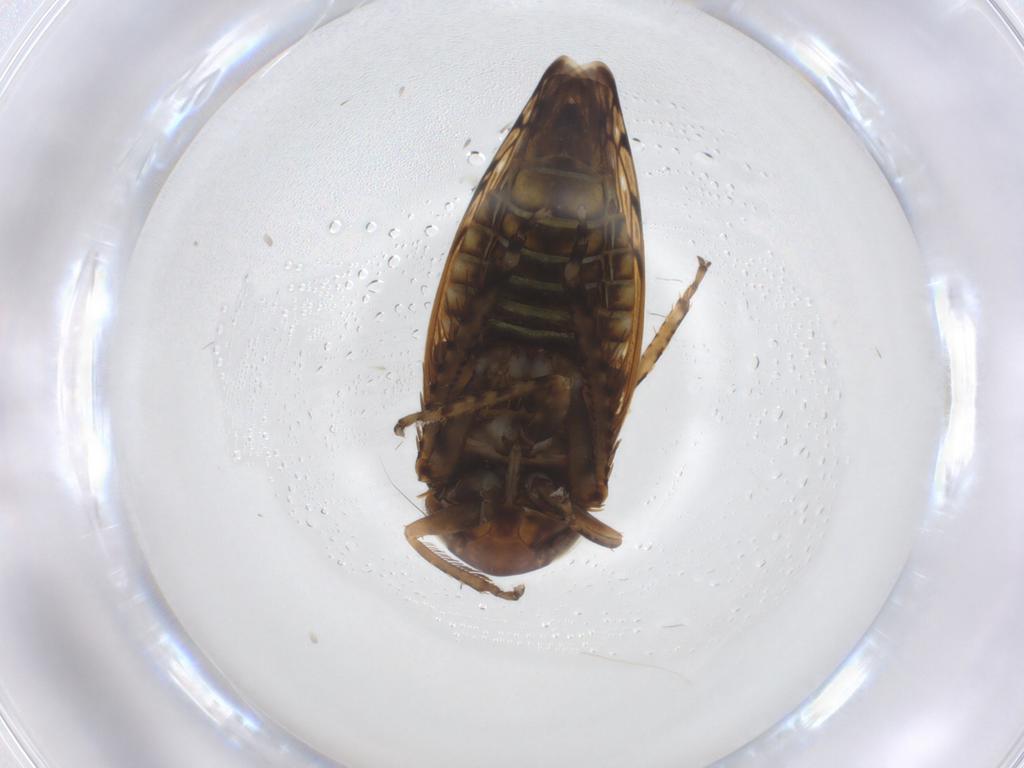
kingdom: Animalia
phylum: Arthropoda
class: Insecta
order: Hemiptera
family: Cicadellidae
